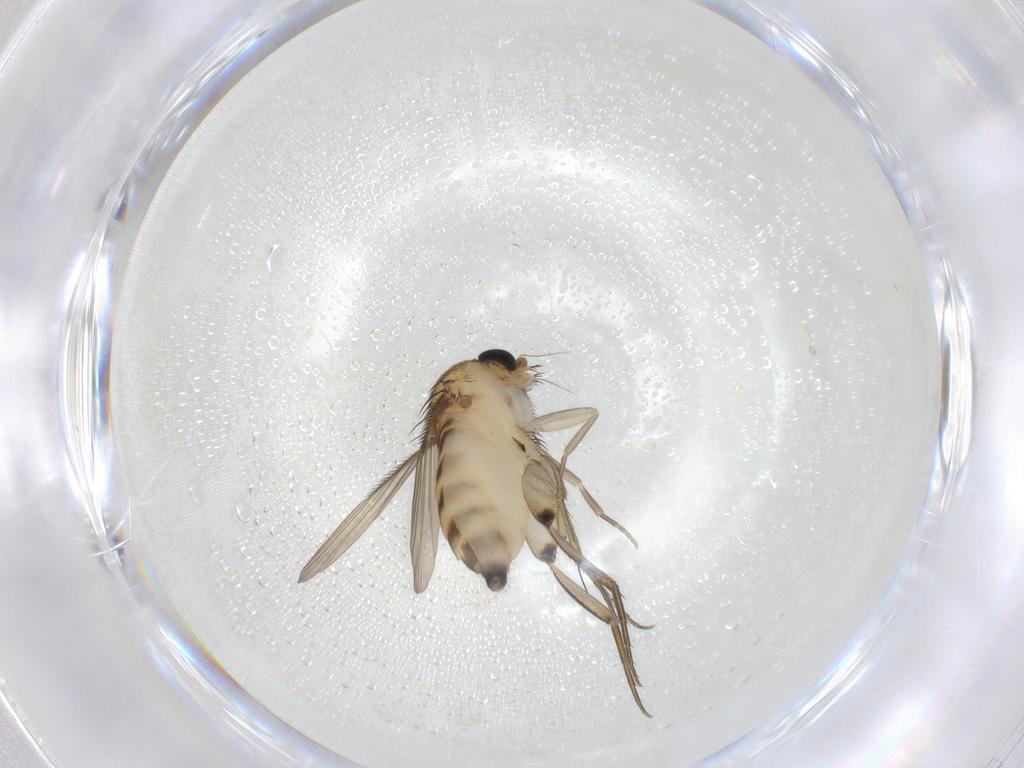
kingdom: Animalia
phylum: Arthropoda
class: Insecta
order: Diptera
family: Phoridae
